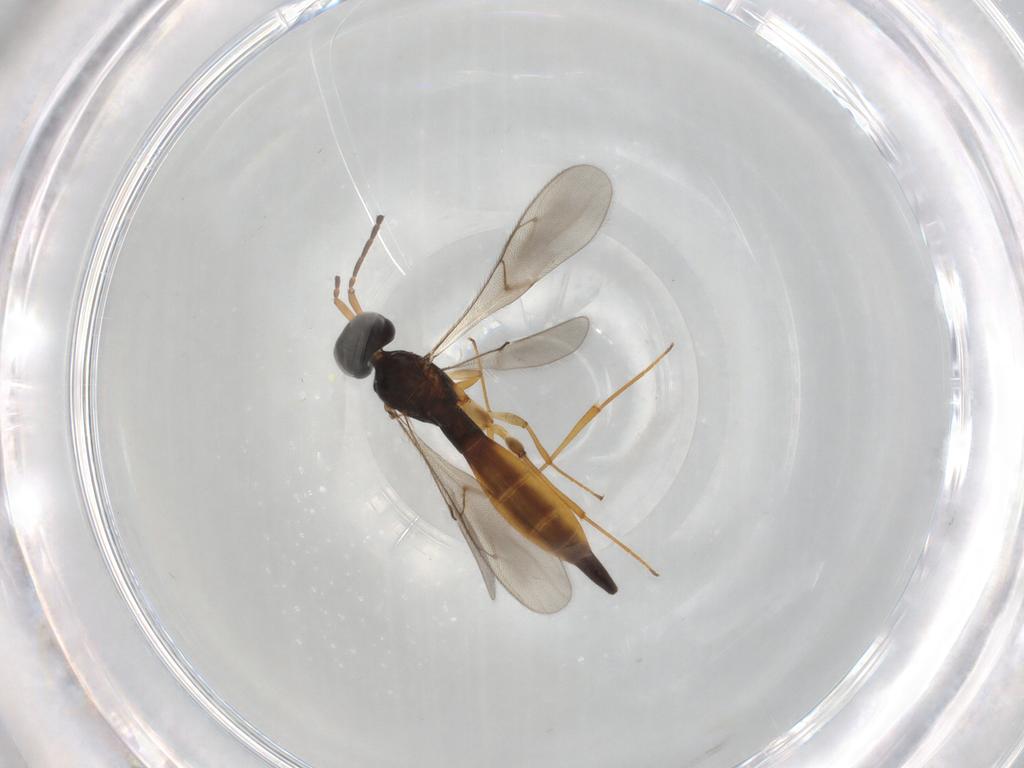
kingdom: Animalia
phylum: Arthropoda
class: Insecta
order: Hymenoptera
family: Scelionidae
